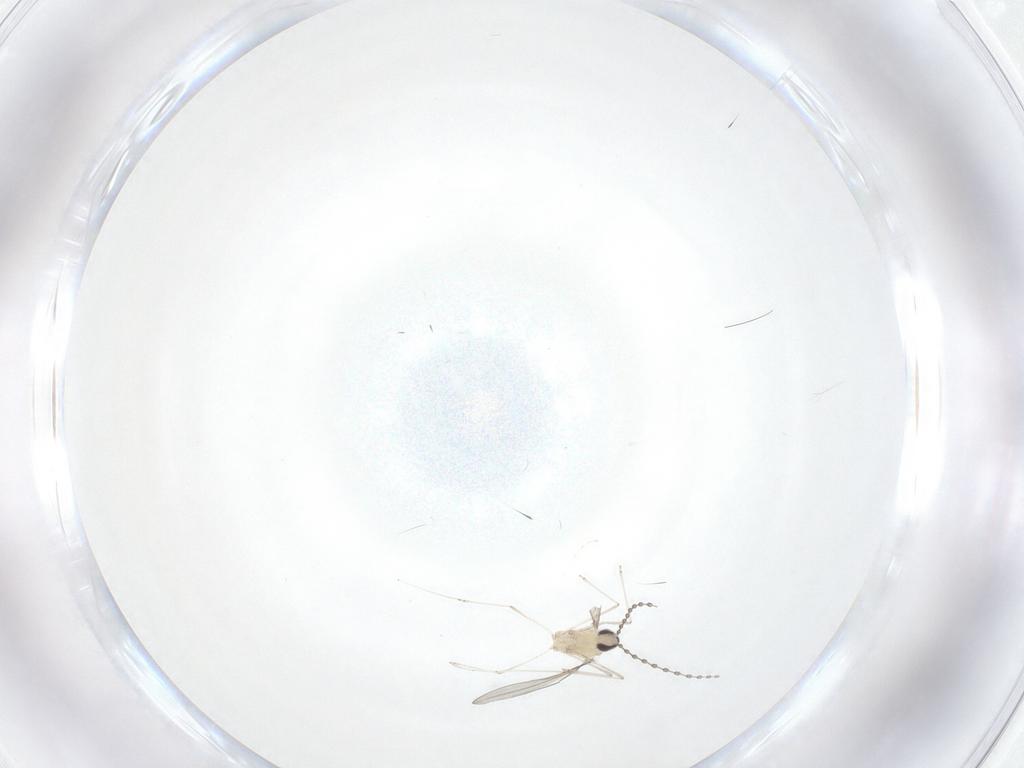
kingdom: Animalia
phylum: Arthropoda
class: Insecta
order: Diptera
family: Cecidomyiidae
